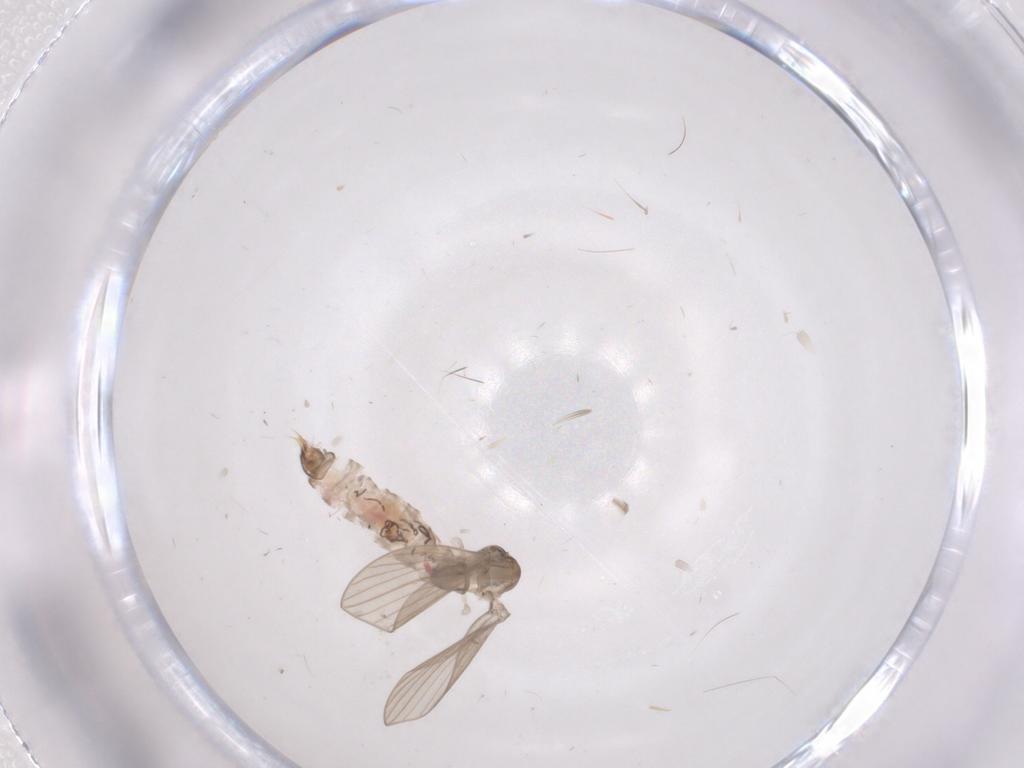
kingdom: Animalia
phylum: Arthropoda
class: Insecta
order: Diptera
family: Psychodidae
